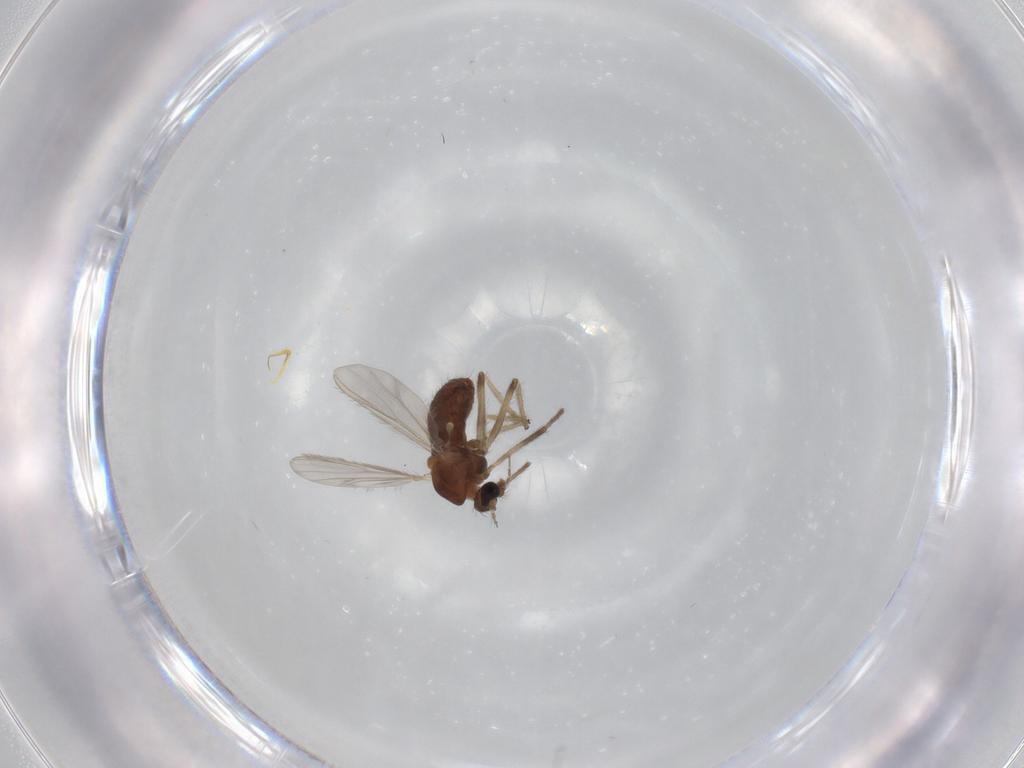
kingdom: Animalia
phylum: Arthropoda
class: Insecta
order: Diptera
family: Chironomidae
